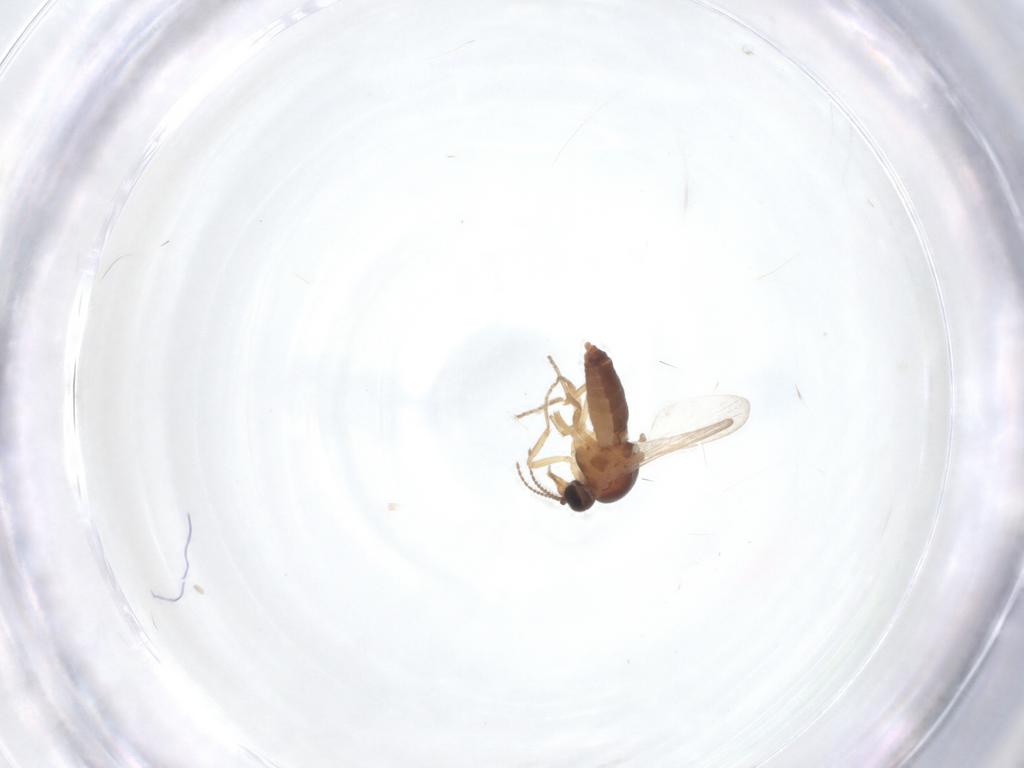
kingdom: Animalia
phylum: Arthropoda
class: Insecta
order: Diptera
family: Ceratopogonidae
